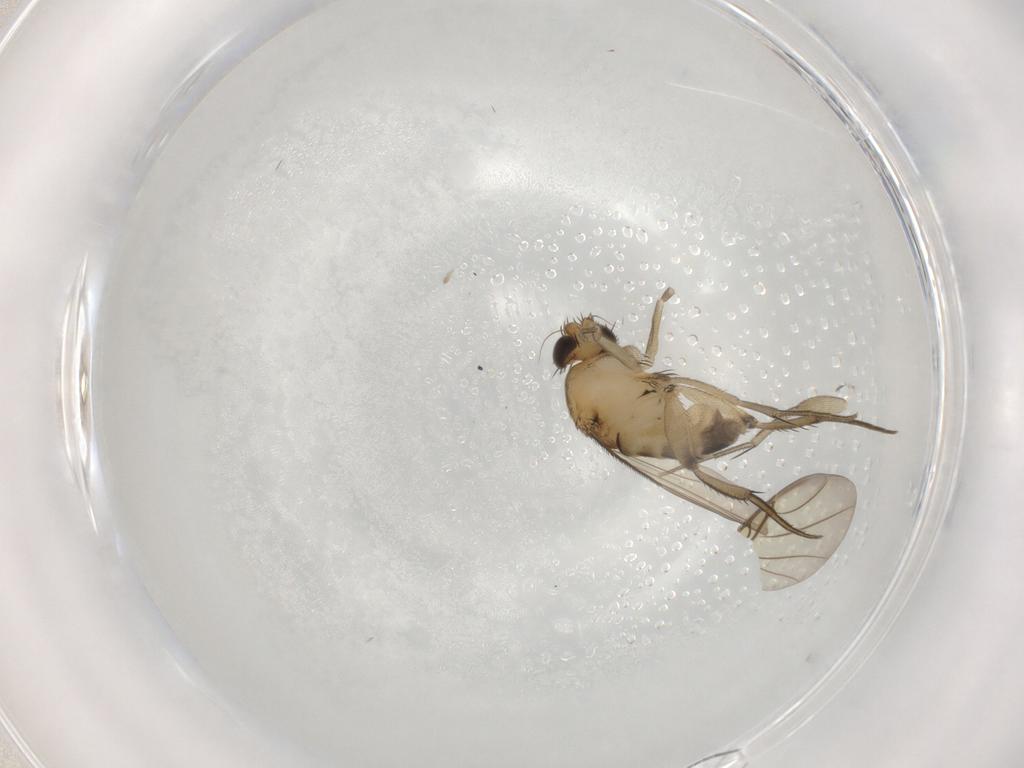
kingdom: Animalia
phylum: Arthropoda
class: Insecta
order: Diptera
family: Phoridae
